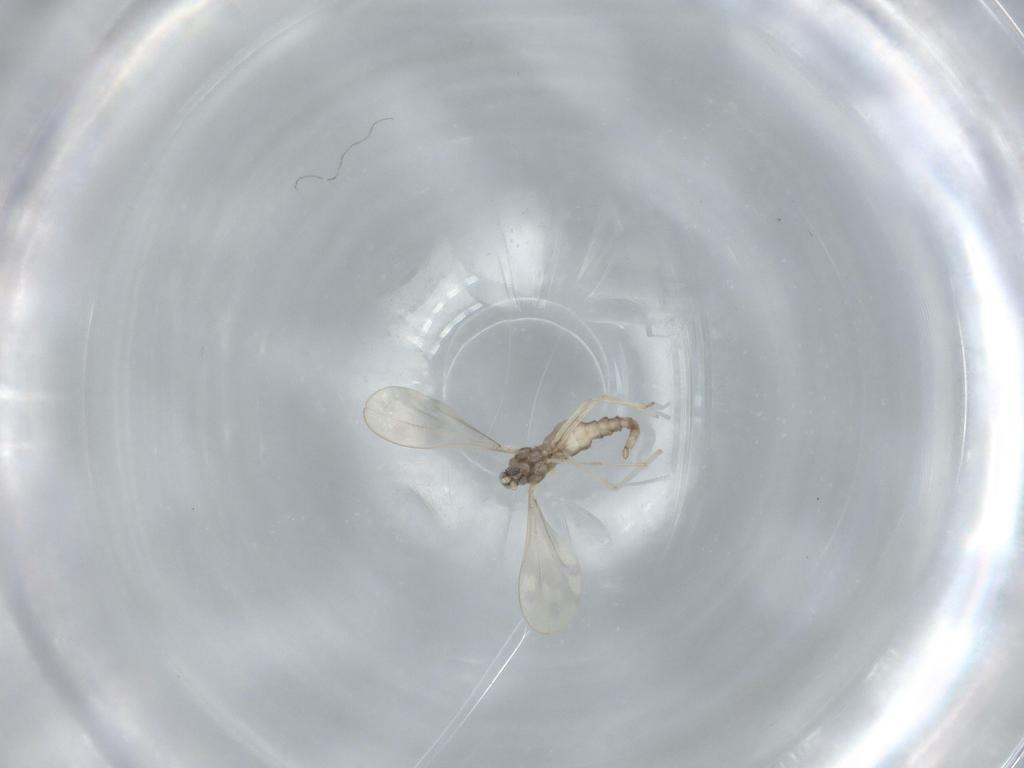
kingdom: Animalia
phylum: Arthropoda
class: Insecta
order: Diptera
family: Cecidomyiidae
